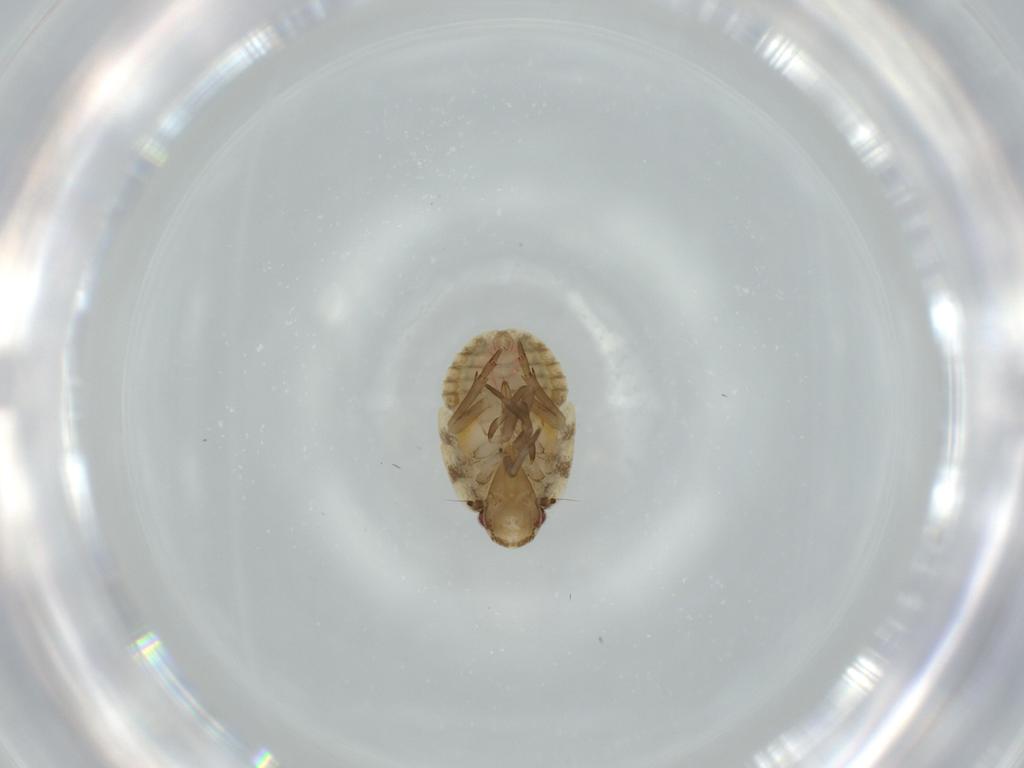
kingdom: Animalia
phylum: Arthropoda
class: Insecta
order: Hemiptera
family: Flatidae
